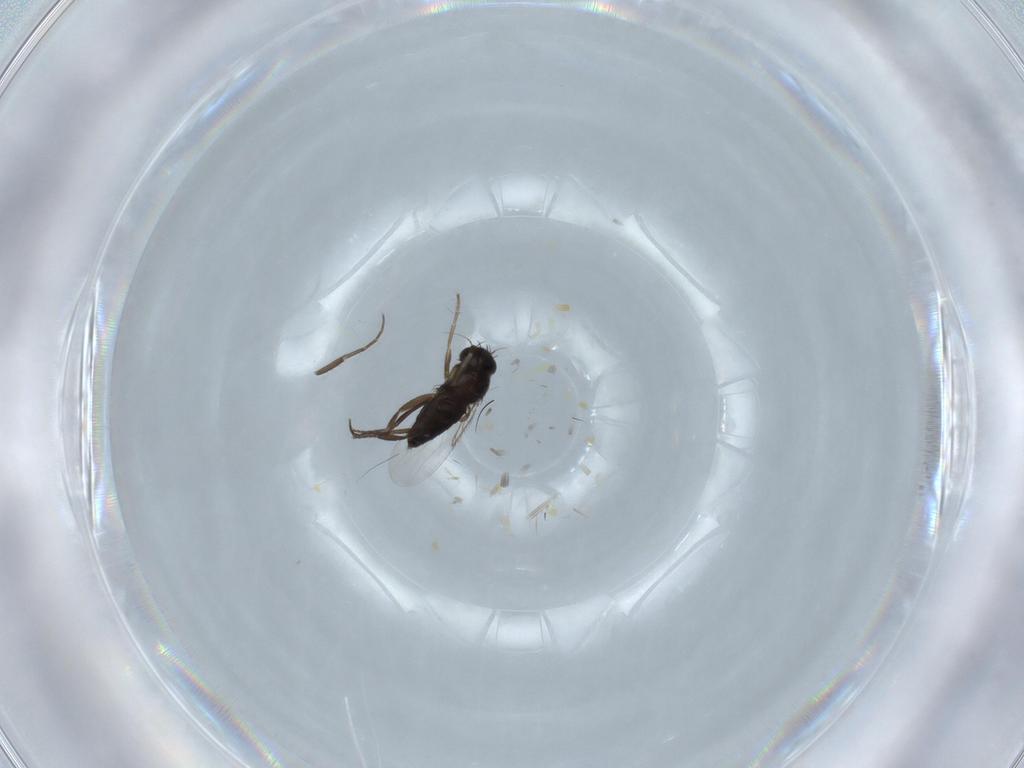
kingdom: Animalia
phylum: Arthropoda
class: Insecta
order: Diptera
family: Phoridae
